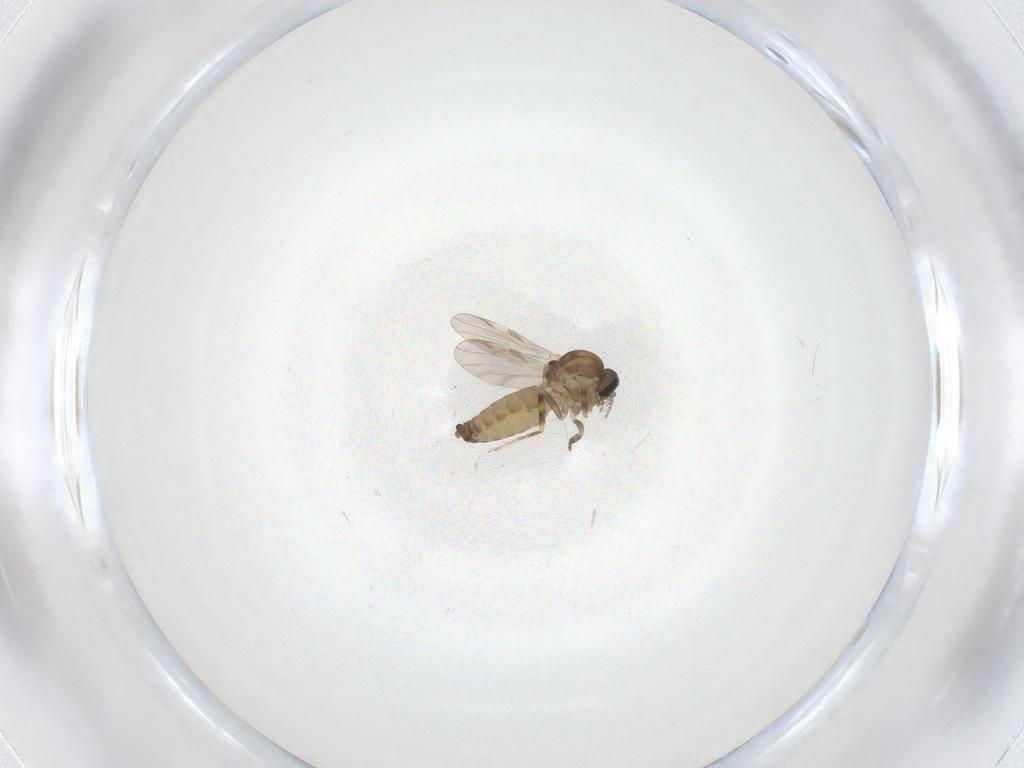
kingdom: Animalia
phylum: Arthropoda
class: Insecta
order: Diptera
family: Ceratopogonidae
